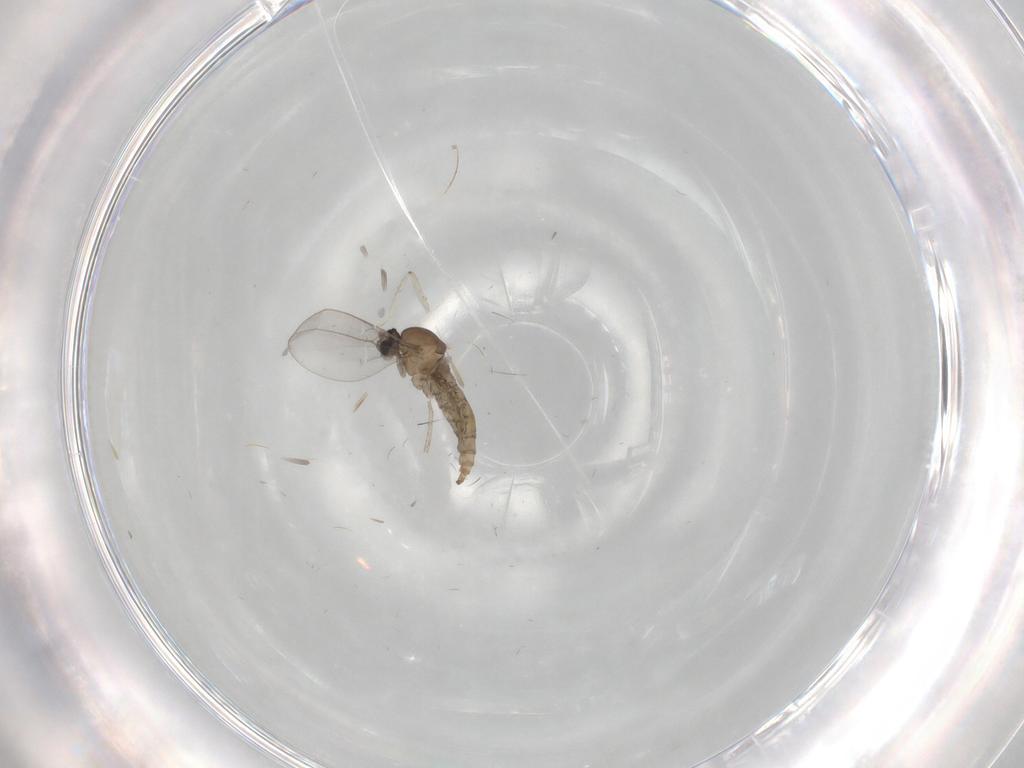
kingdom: Animalia
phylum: Arthropoda
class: Insecta
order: Diptera
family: Cecidomyiidae
